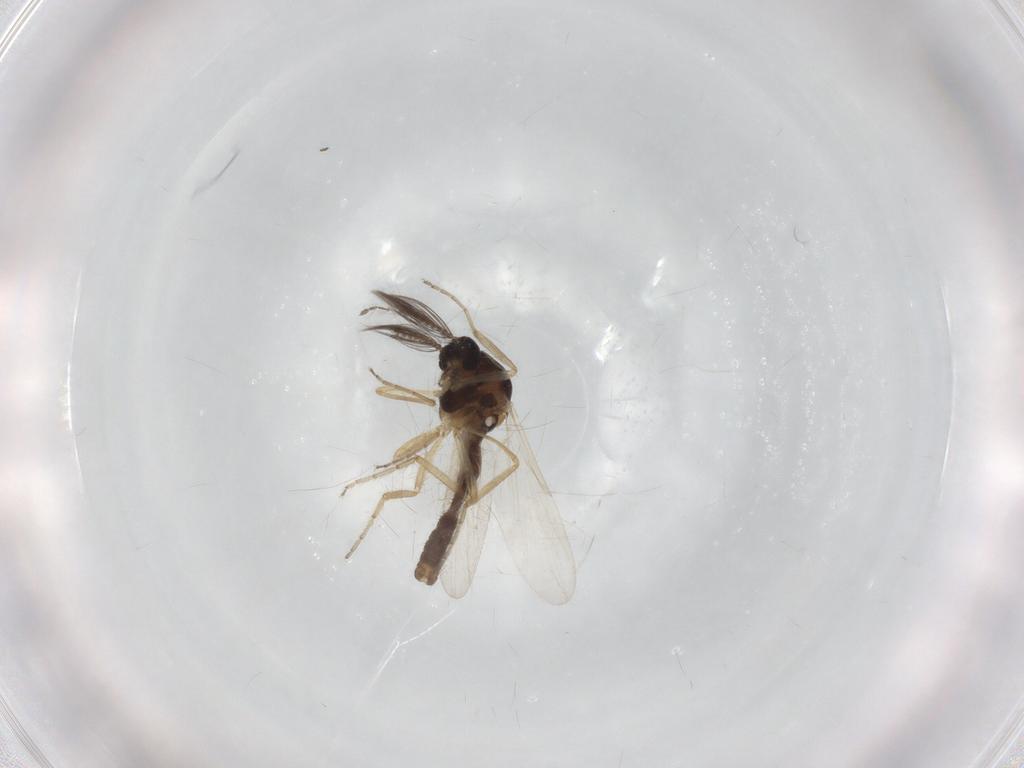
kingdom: Animalia
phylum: Arthropoda
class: Insecta
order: Diptera
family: Ceratopogonidae
